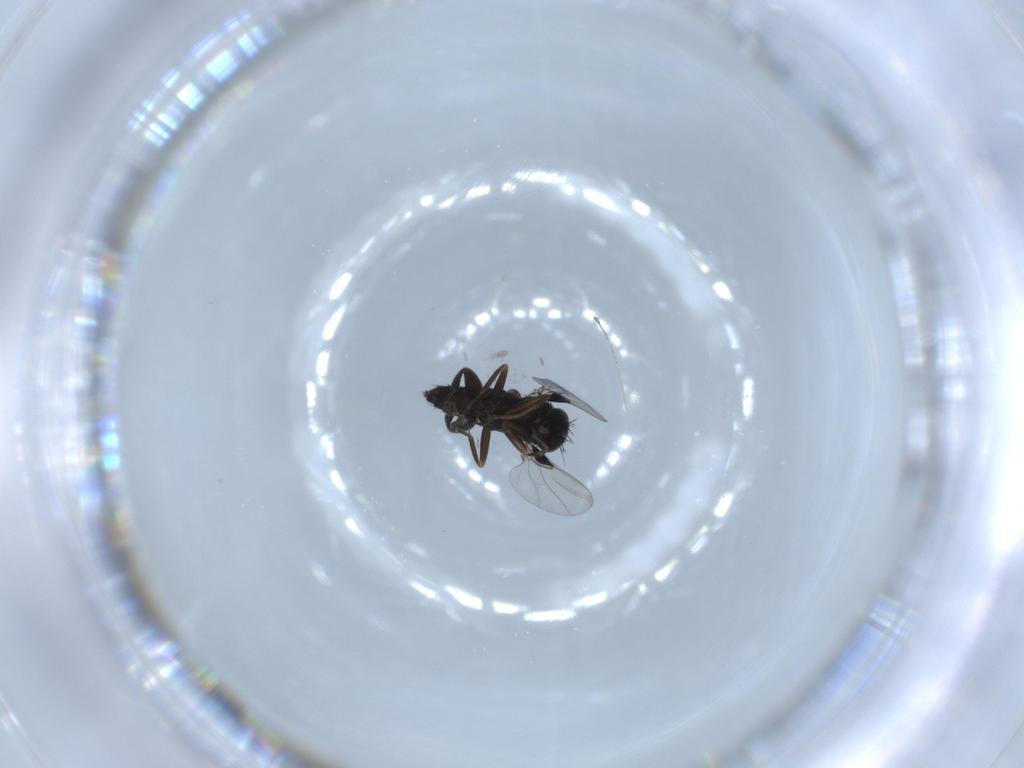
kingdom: Animalia
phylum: Arthropoda
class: Insecta
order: Diptera
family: Phoridae
